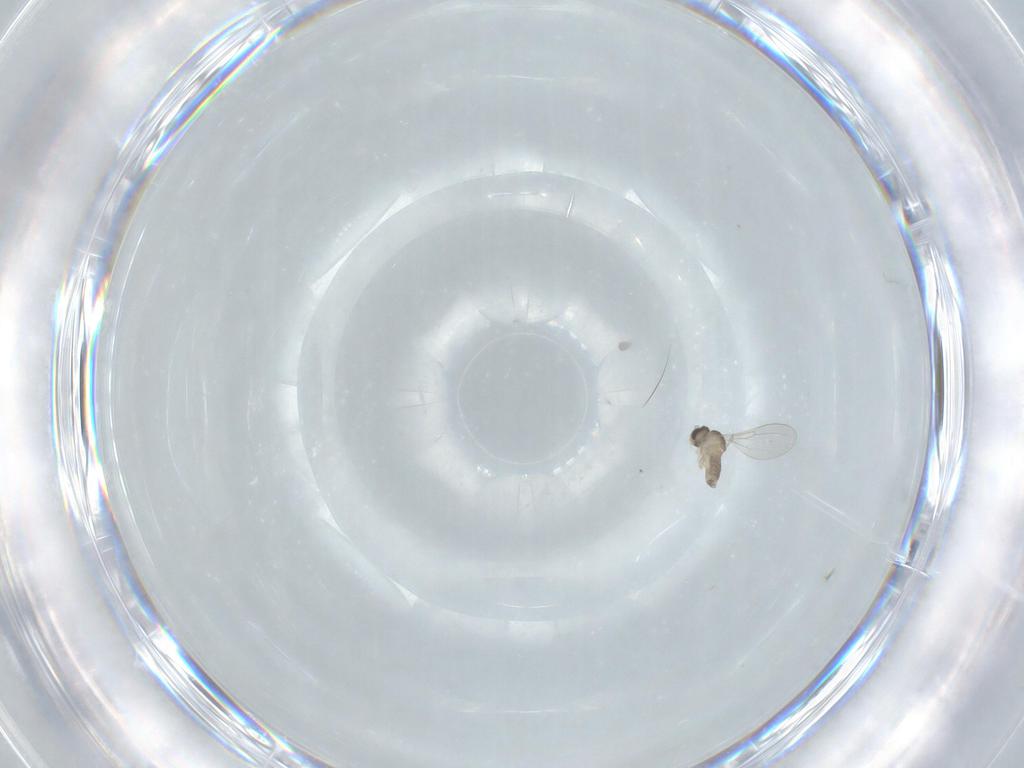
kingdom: Animalia
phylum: Arthropoda
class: Insecta
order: Diptera
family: Cecidomyiidae
